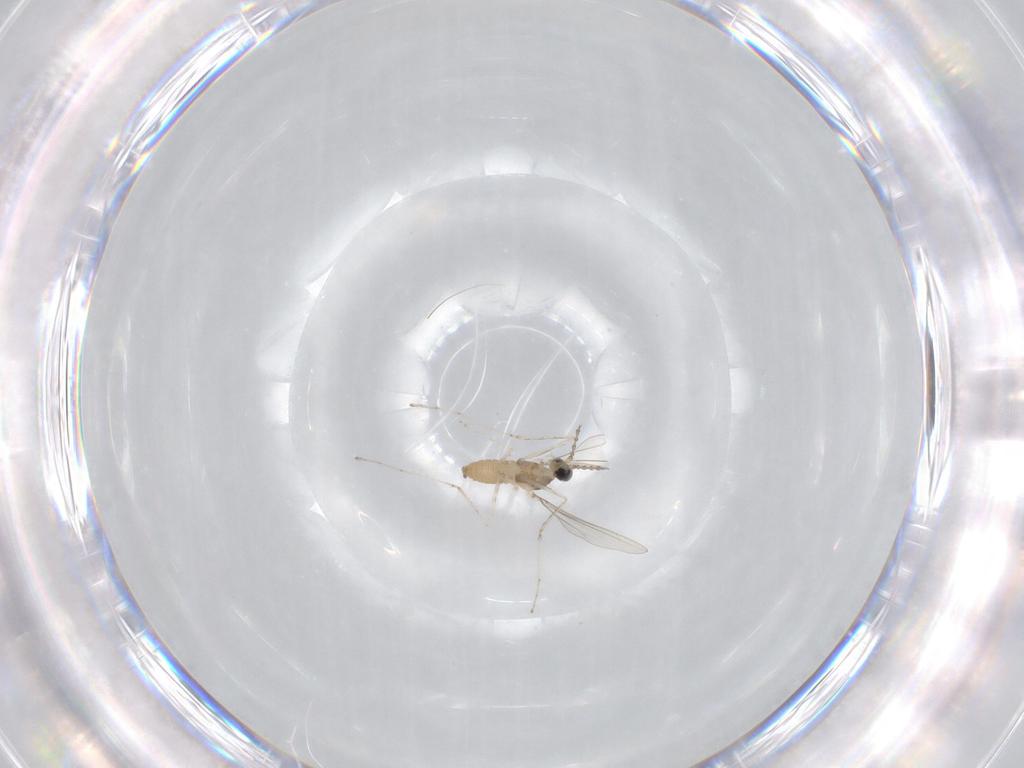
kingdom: Animalia
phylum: Arthropoda
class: Insecta
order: Diptera
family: Cecidomyiidae
